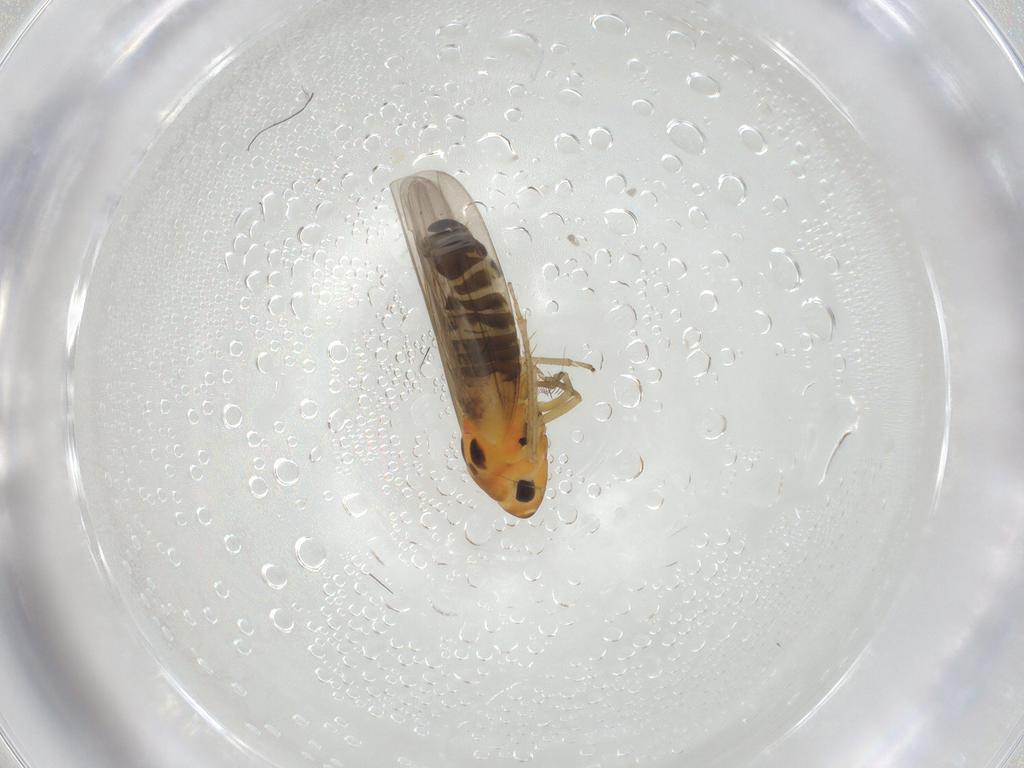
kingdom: Animalia
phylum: Arthropoda
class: Insecta
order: Hemiptera
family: Cicadellidae
